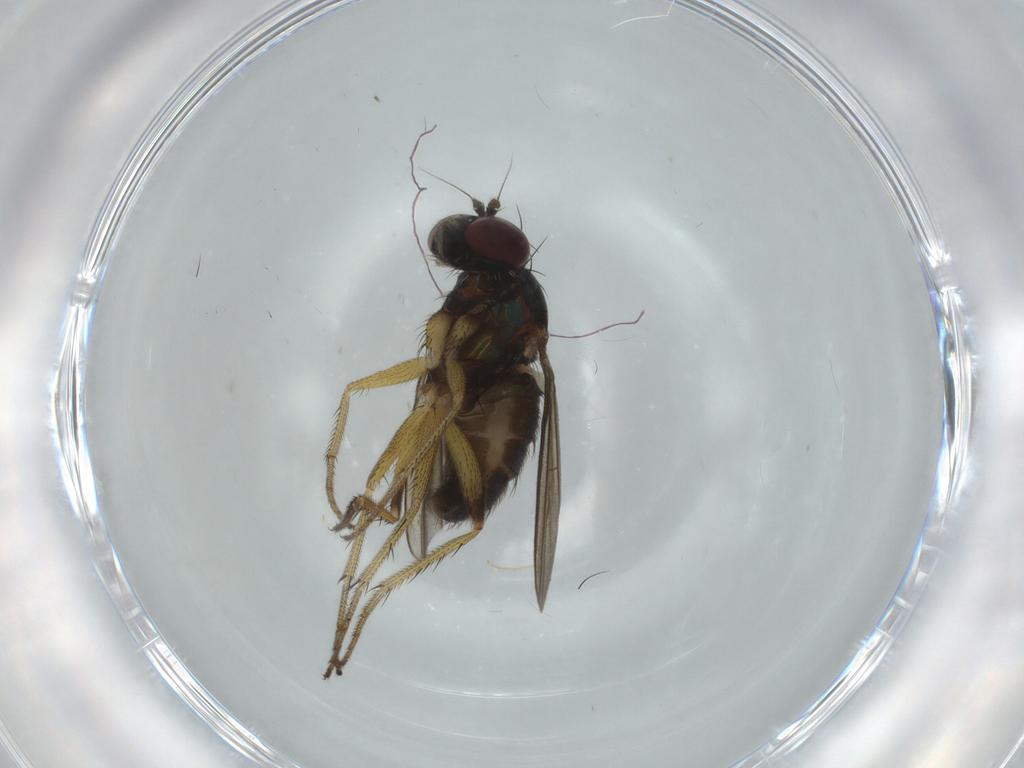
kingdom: Animalia
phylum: Arthropoda
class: Insecta
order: Diptera
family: Dolichopodidae
